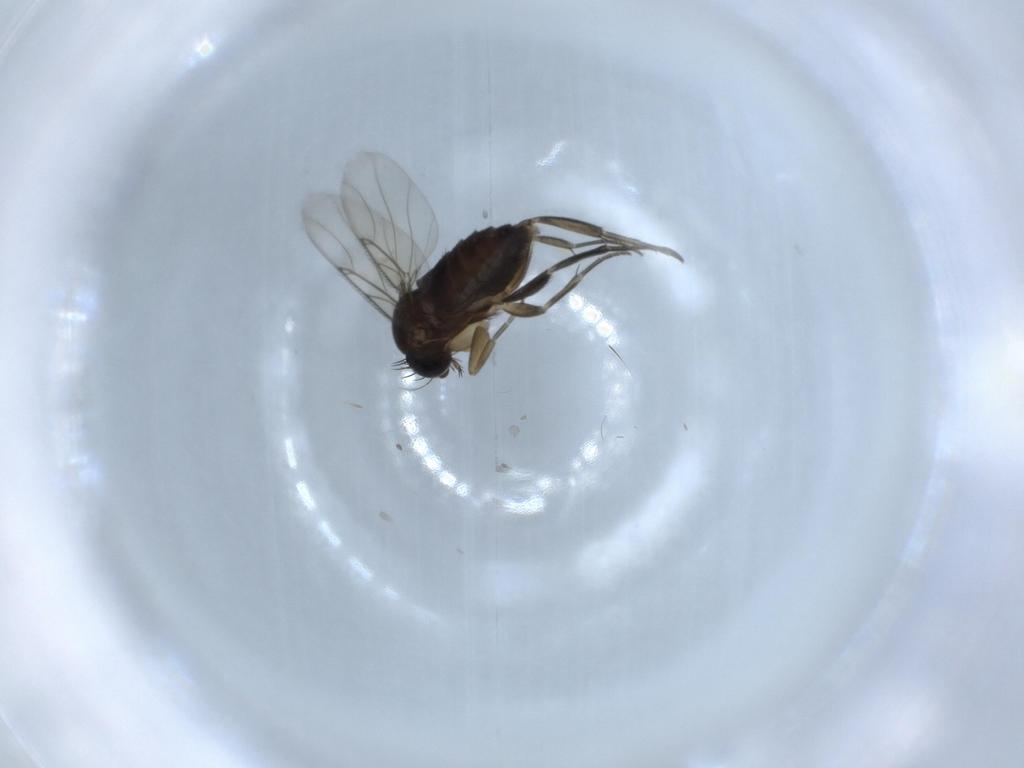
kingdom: Animalia
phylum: Arthropoda
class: Insecta
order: Diptera
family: Phoridae
